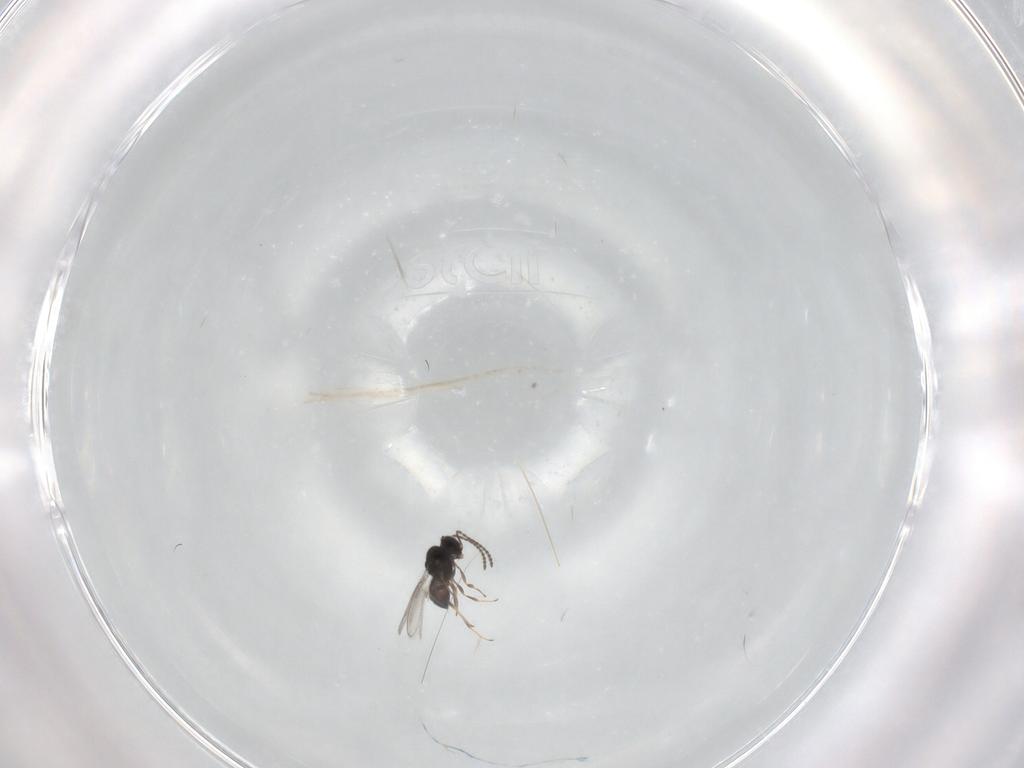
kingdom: Animalia
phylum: Arthropoda
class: Insecta
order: Hymenoptera
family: Scelionidae
